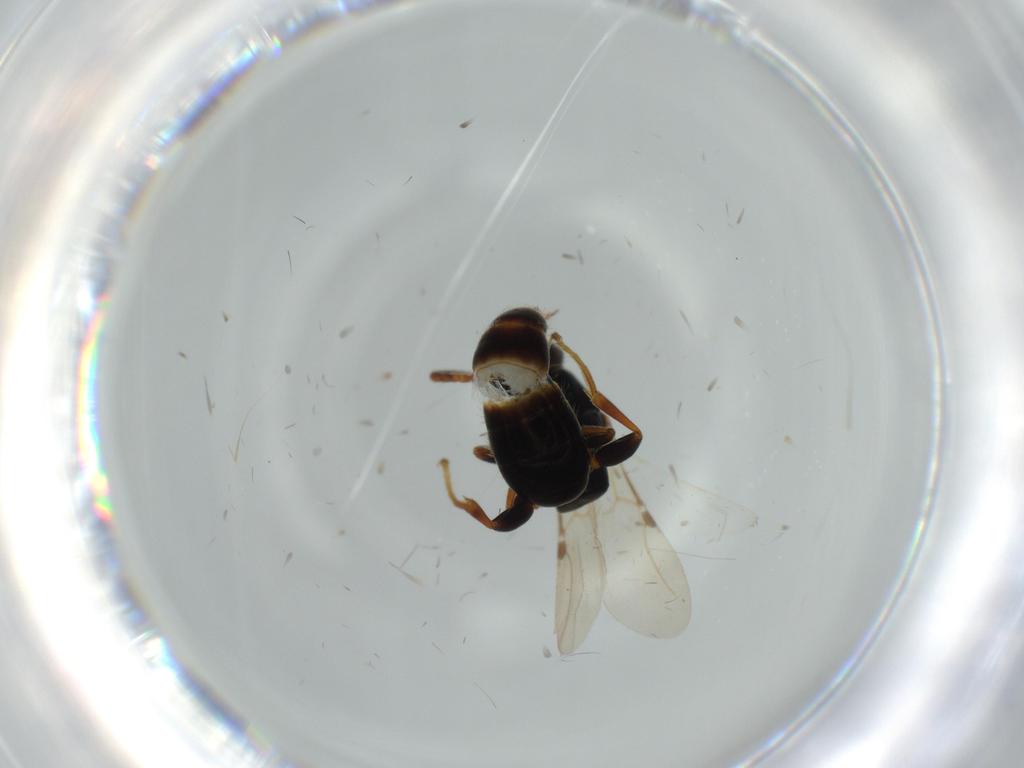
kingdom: Animalia
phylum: Arthropoda
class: Insecta
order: Hymenoptera
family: Bethylidae
